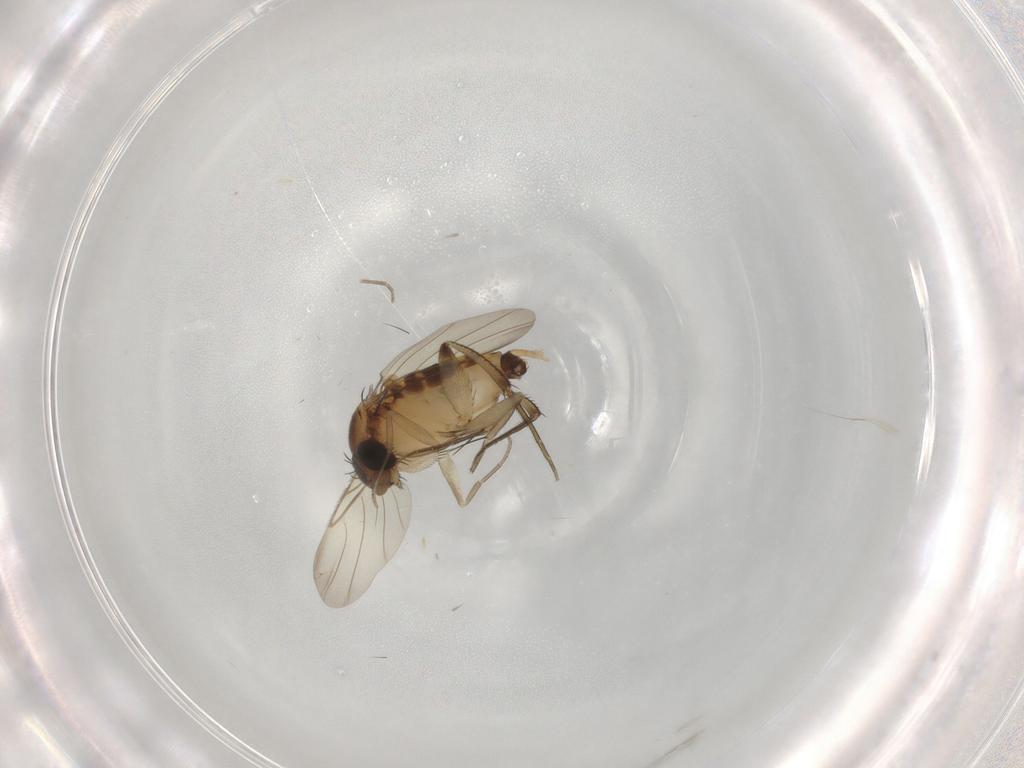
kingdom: Animalia
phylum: Arthropoda
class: Insecta
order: Diptera
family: Phoridae
